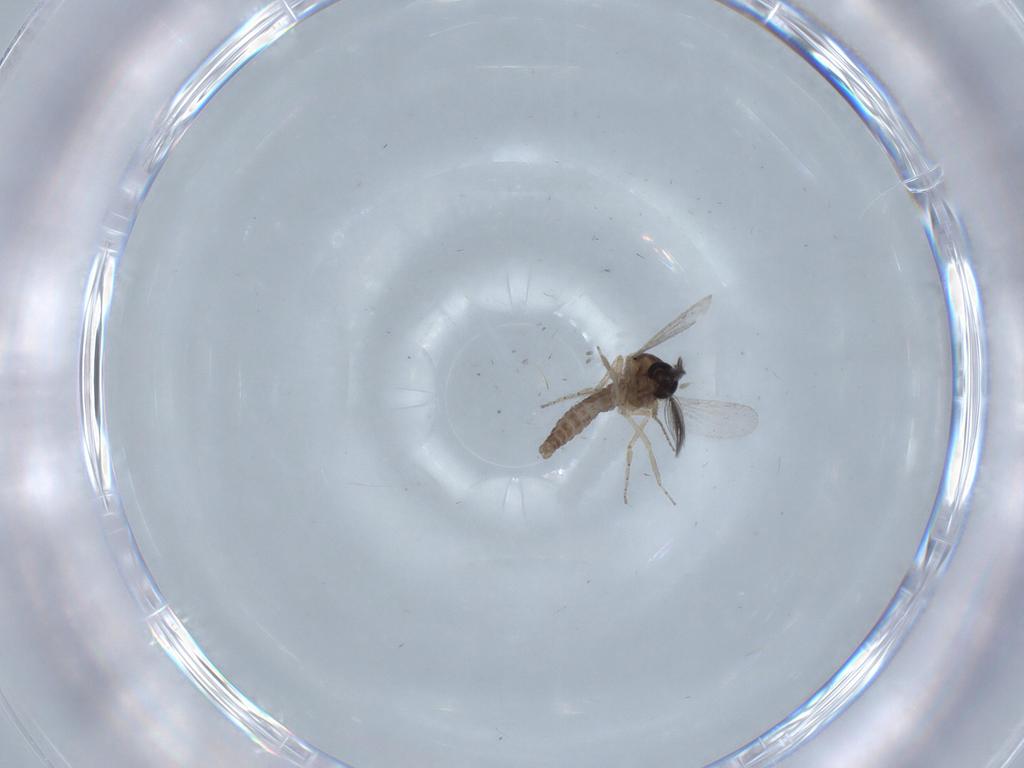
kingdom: Animalia
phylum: Arthropoda
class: Insecta
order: Diptera
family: Ceratopogonidae
